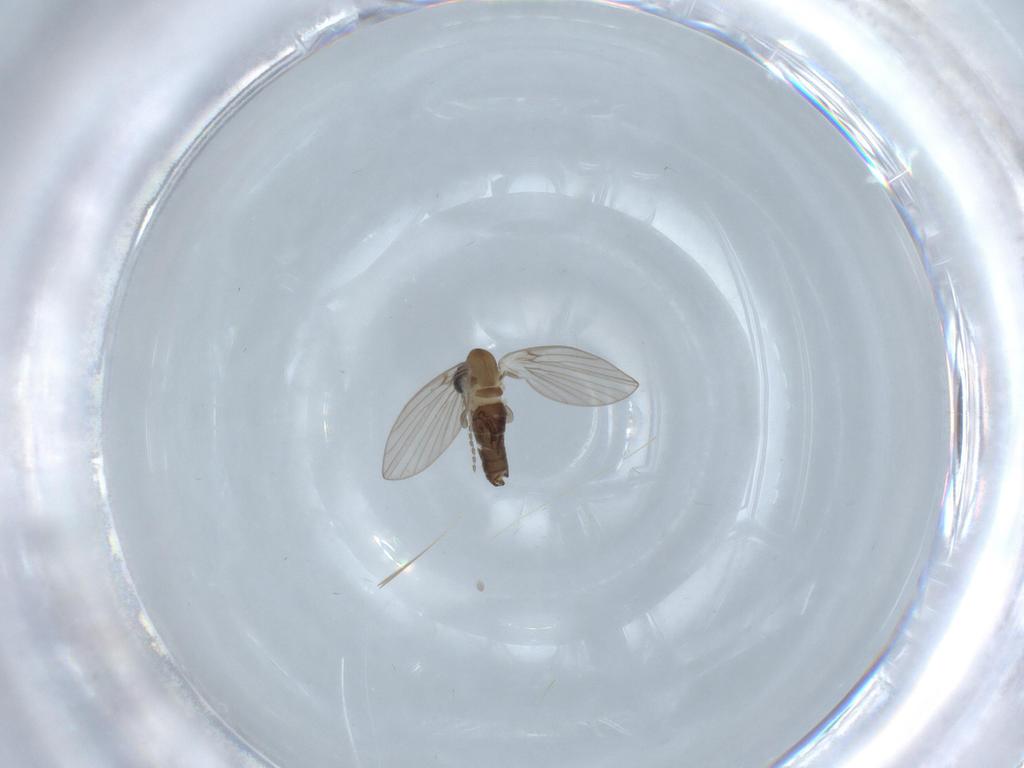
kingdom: Animalia
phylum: Arthropoda
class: Insecta
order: Diptera
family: Psychodidae
